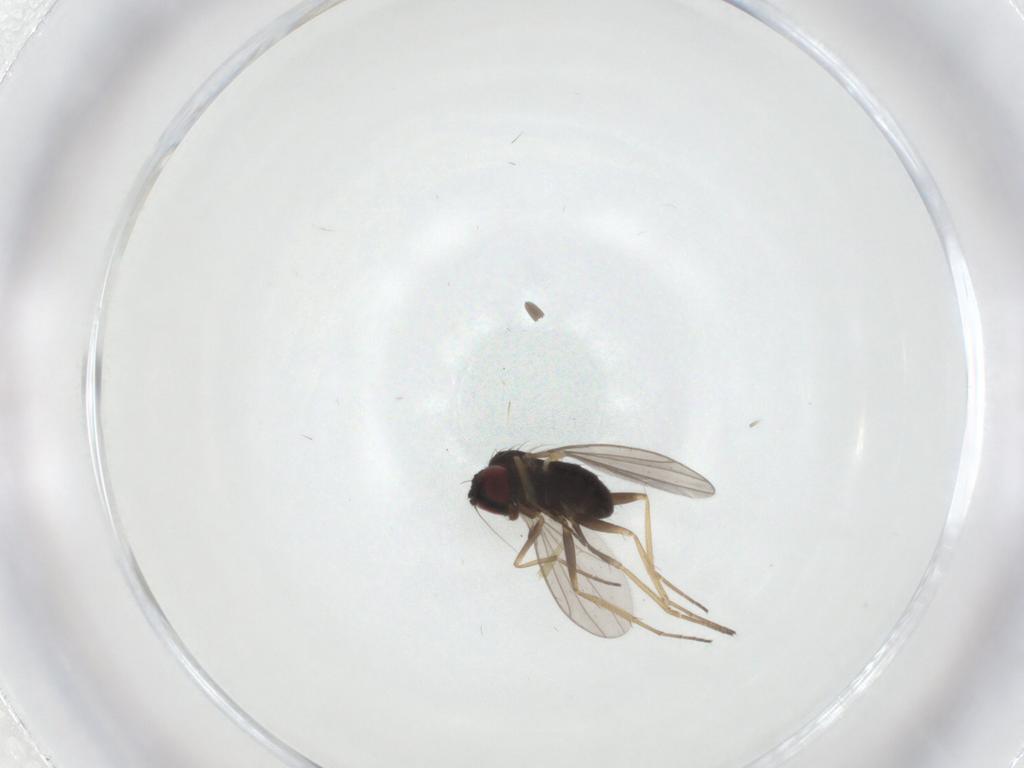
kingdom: Animalia
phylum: Arthropoda
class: Insecta
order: Diptera
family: Dolichopodidae
